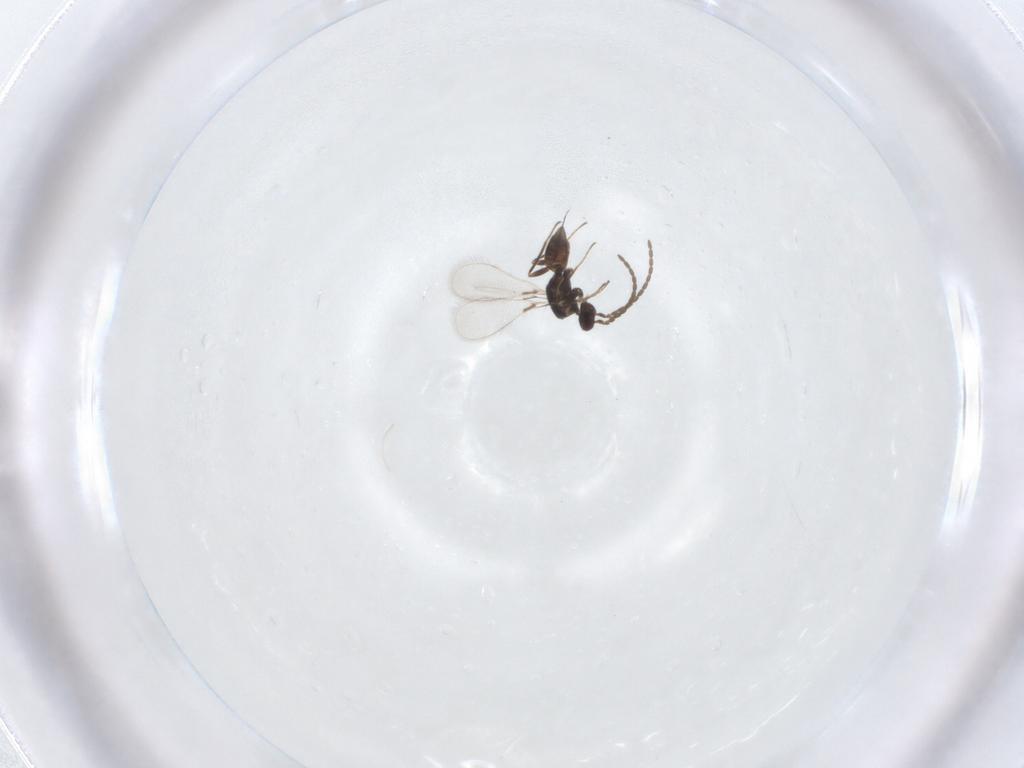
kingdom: Animalia
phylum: Arthropoda
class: Insecta
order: Hymenoptera
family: Mymaridae
